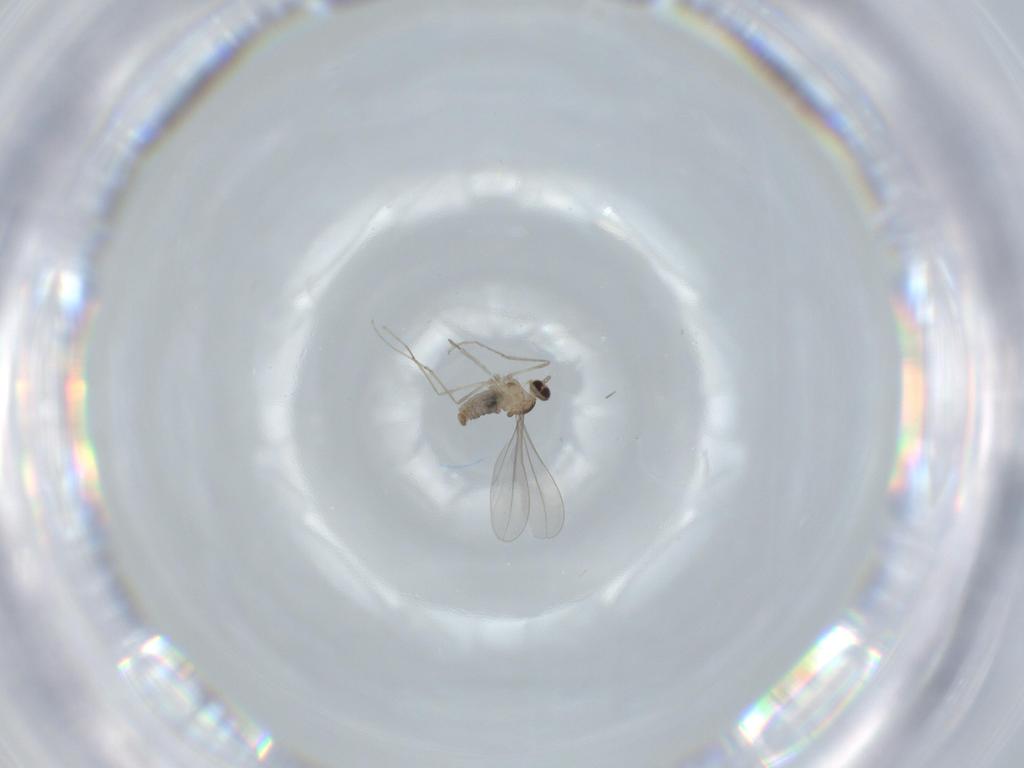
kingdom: Animalia
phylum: Arthropoda
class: Insecta
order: Diptera
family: Cecidomyiidae
